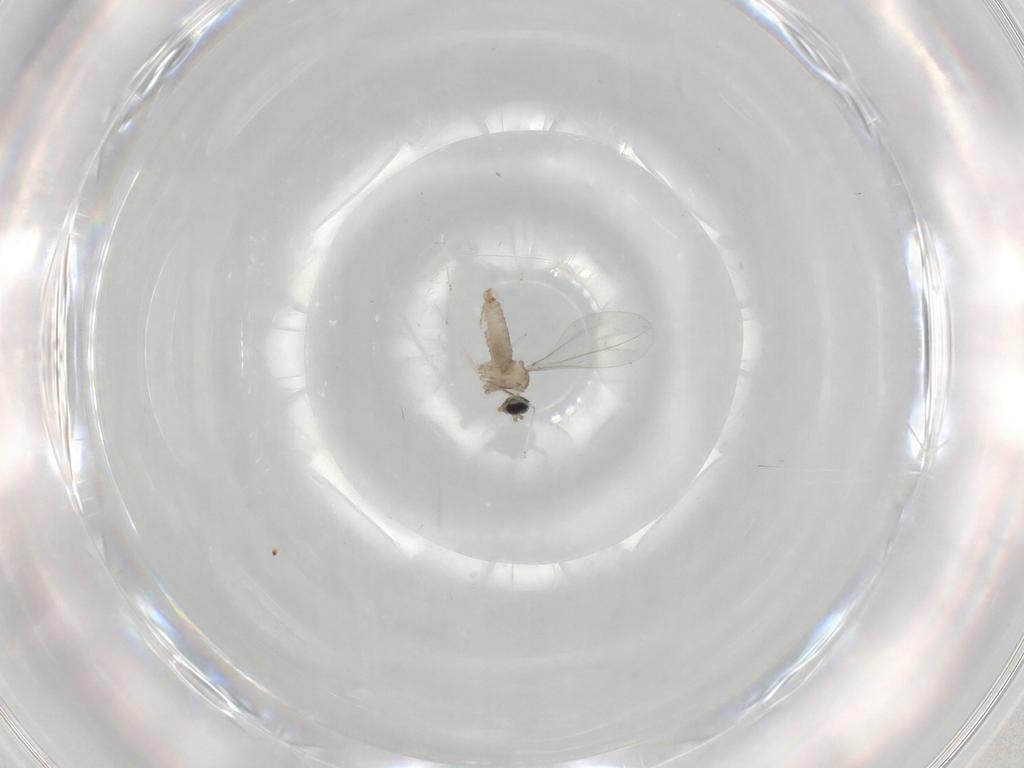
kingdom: Animalia
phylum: Arthropoda
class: Insecta
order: Diptera
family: Cecidomyiidae
